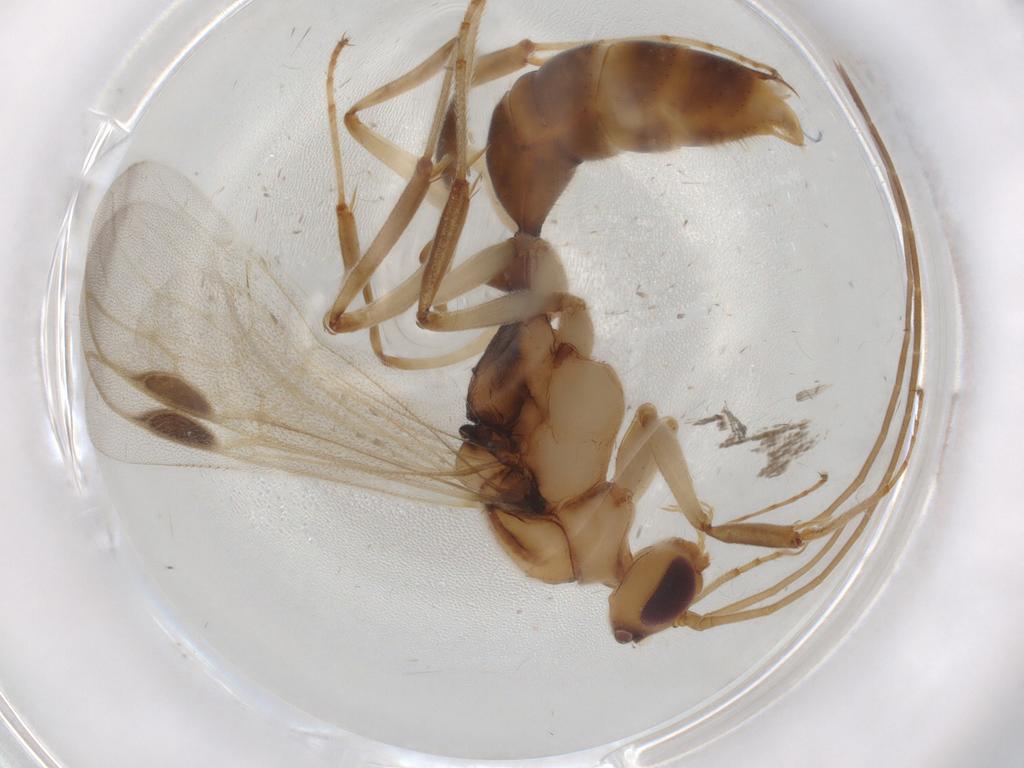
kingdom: Animalia
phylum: Arthropoda
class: Insecta
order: Hymenoptera
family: Formicidae
